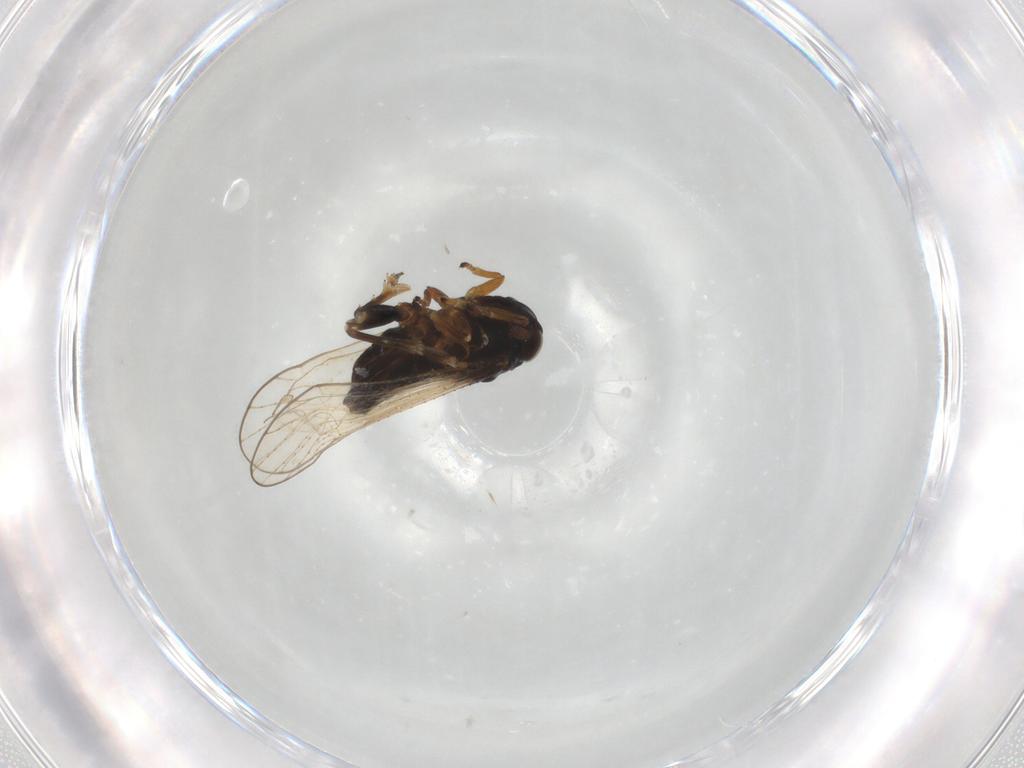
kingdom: Animalia
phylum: Arthropoda
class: Insecta
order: Hemiptera
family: Delphacidae
